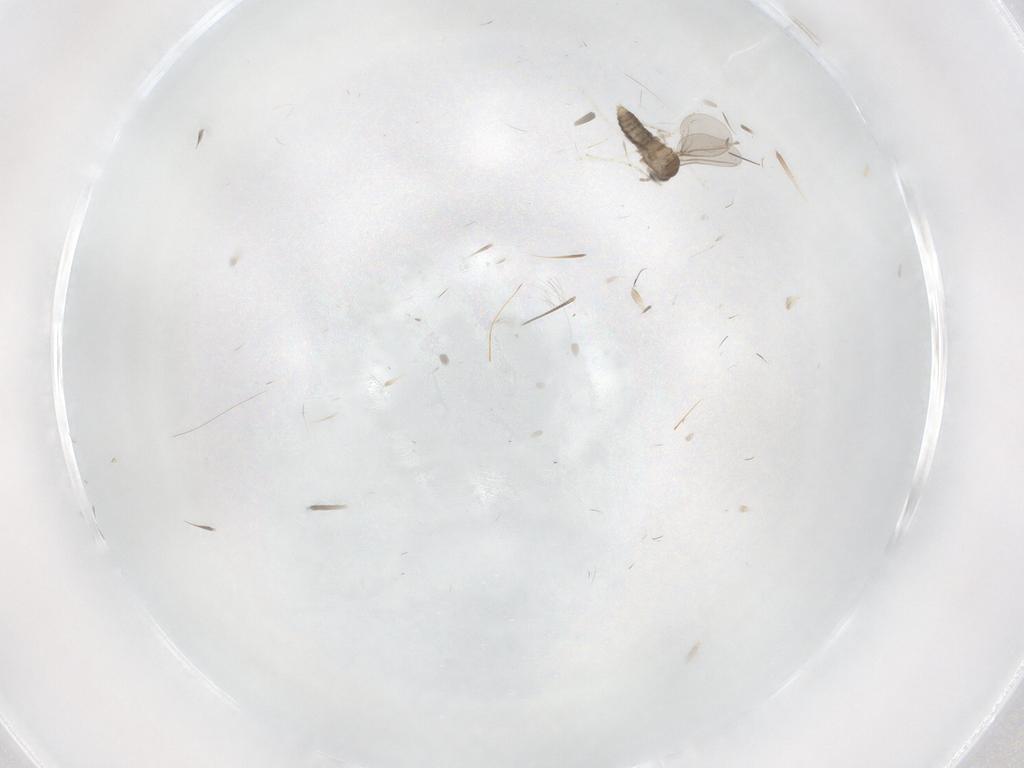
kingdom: Animalia
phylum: Arthropoda
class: Insecta
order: Diptera
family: Cecidomyiidae
